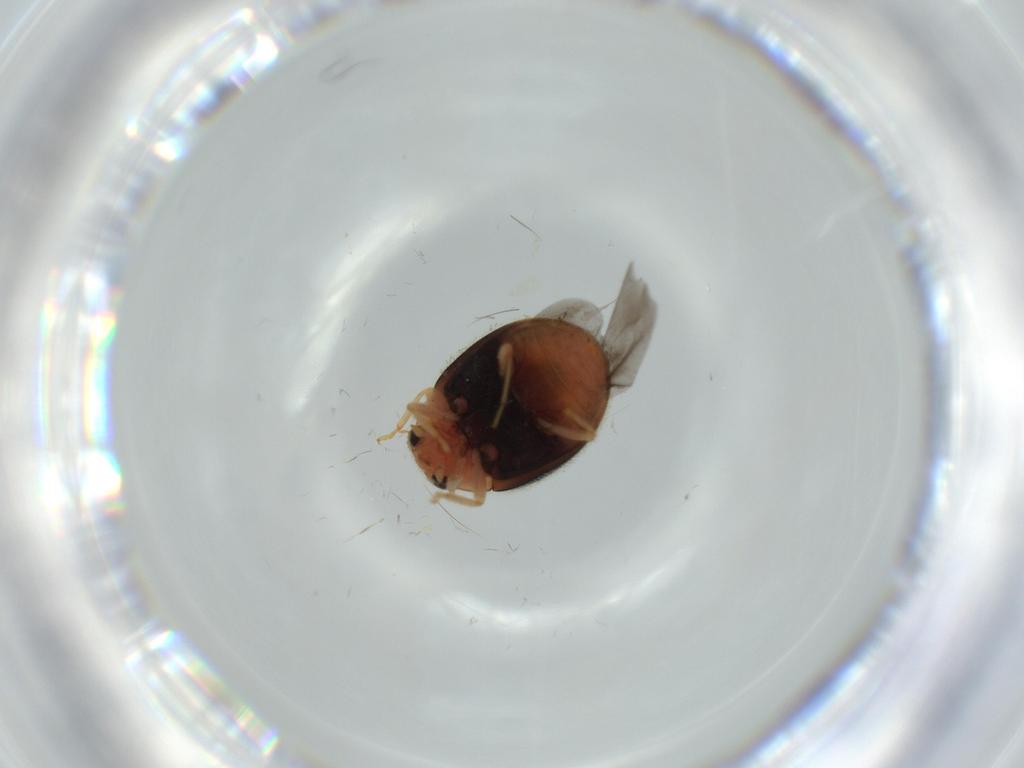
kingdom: Animalia
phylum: Arthropoda
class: Insecta
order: Coleoptera
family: Coccinellidae
